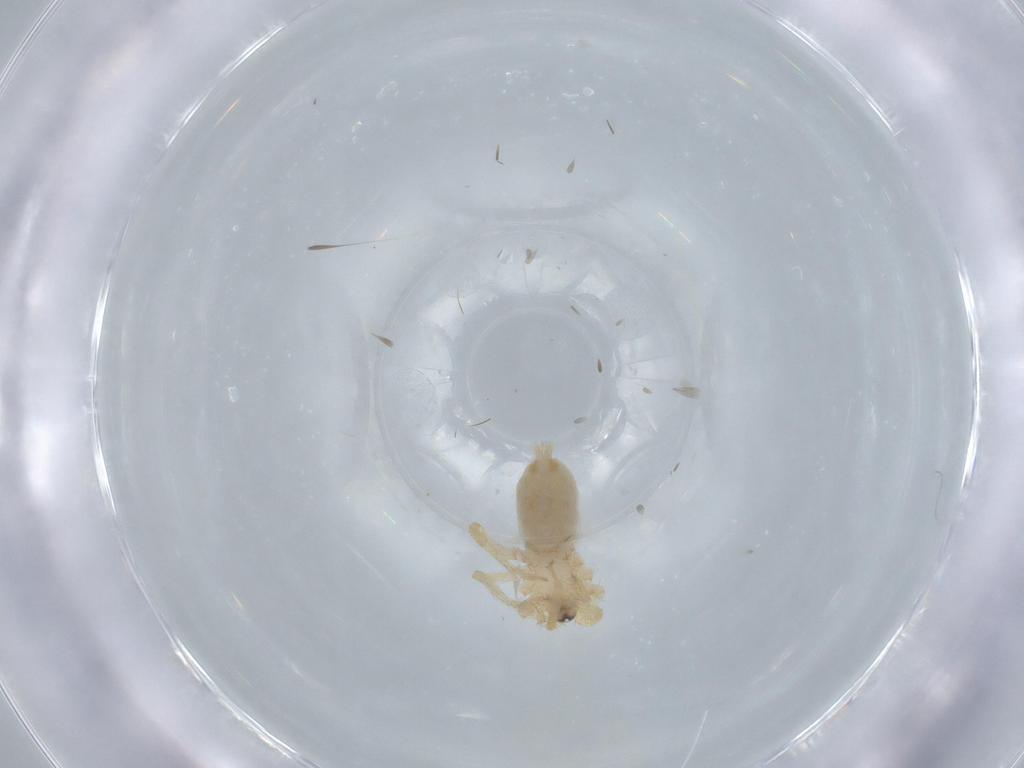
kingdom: Animalia
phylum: Arthropoda
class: Arachnida
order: Araneae
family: Oonopidae
